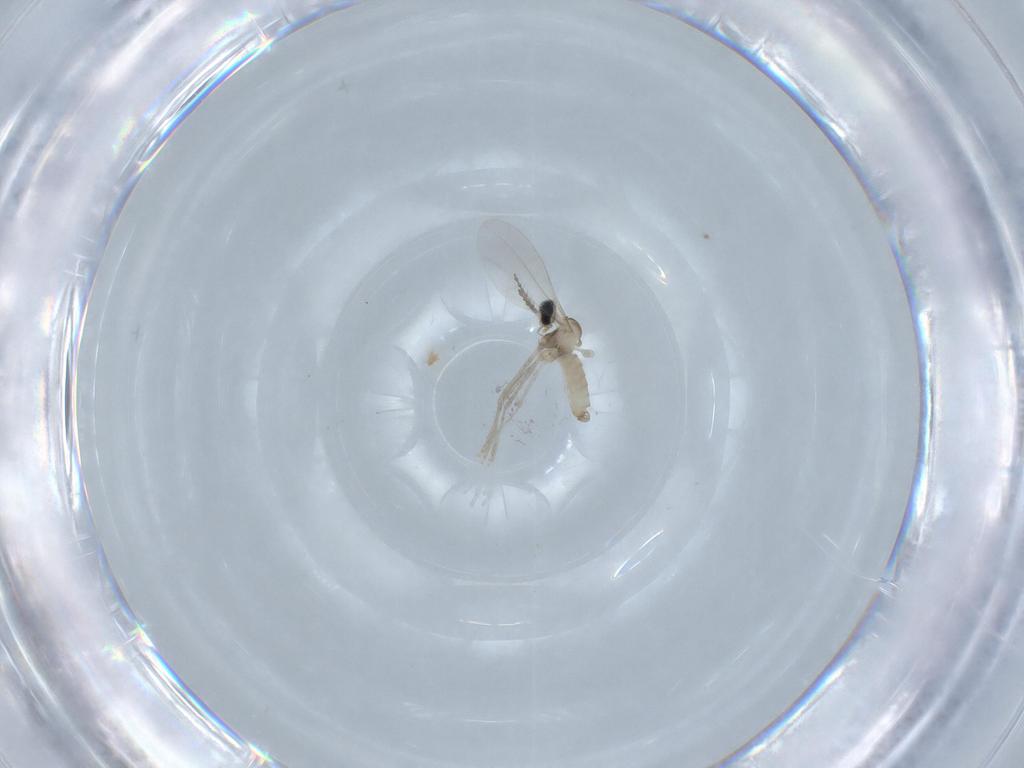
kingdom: Animalia
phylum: Arthropoda
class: Insecta
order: Diptera
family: Cecidomyiidae
